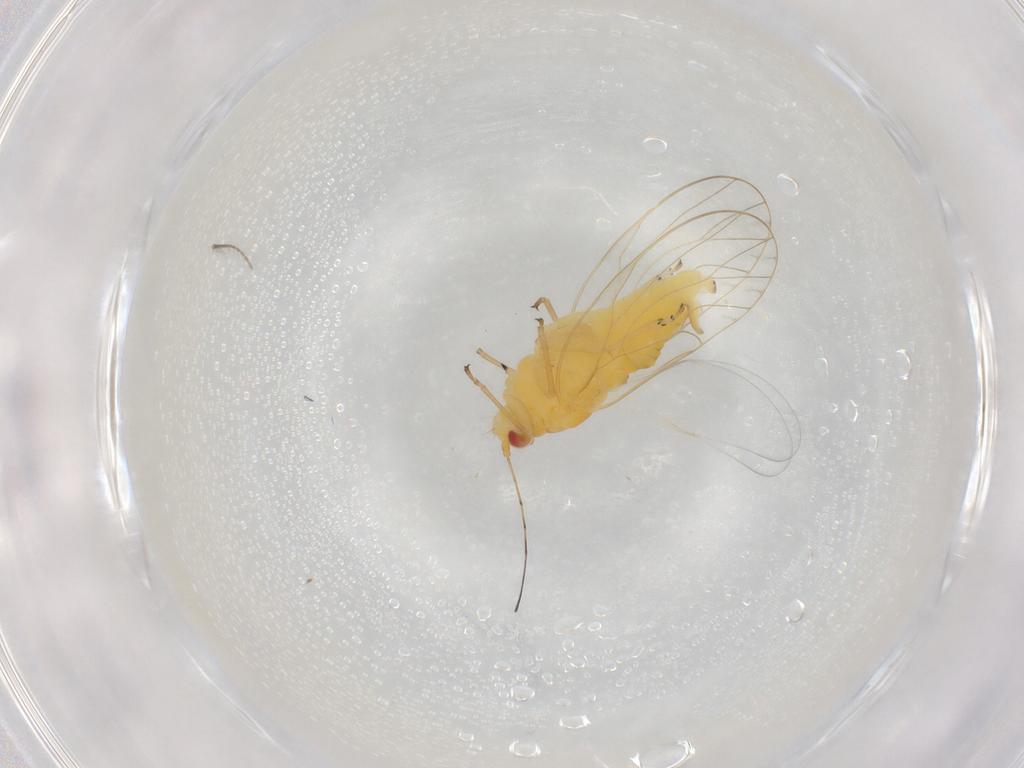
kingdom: Animalia
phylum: Arthropoda
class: Insecta
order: Hemiptera
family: Psyllidae
